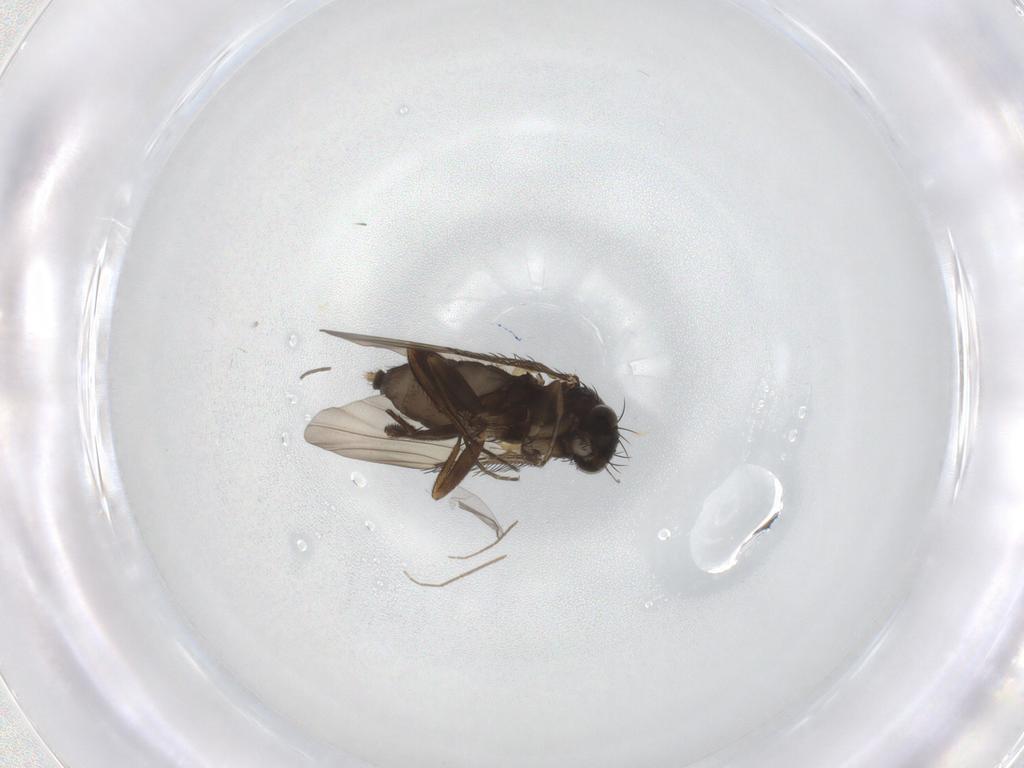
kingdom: Animalia
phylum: Arthropoda
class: Insecta
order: Diptera
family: Phoridae
